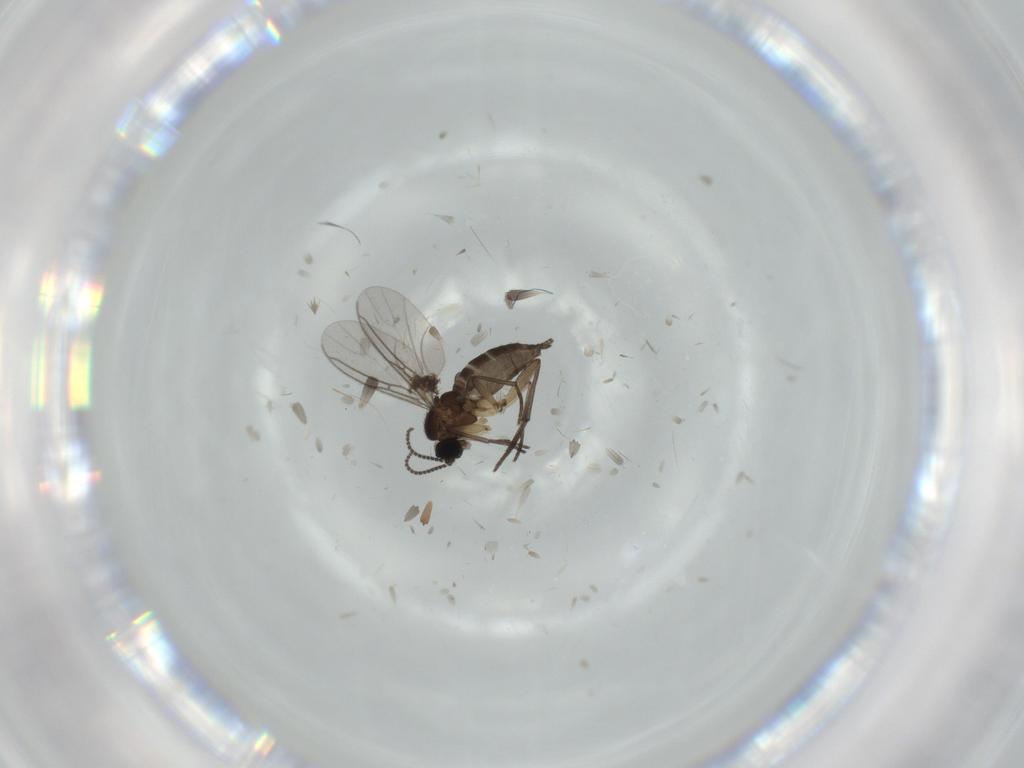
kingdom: Animalia
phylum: Arthropoda
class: Insecta
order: Diptera
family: Sciaridae
